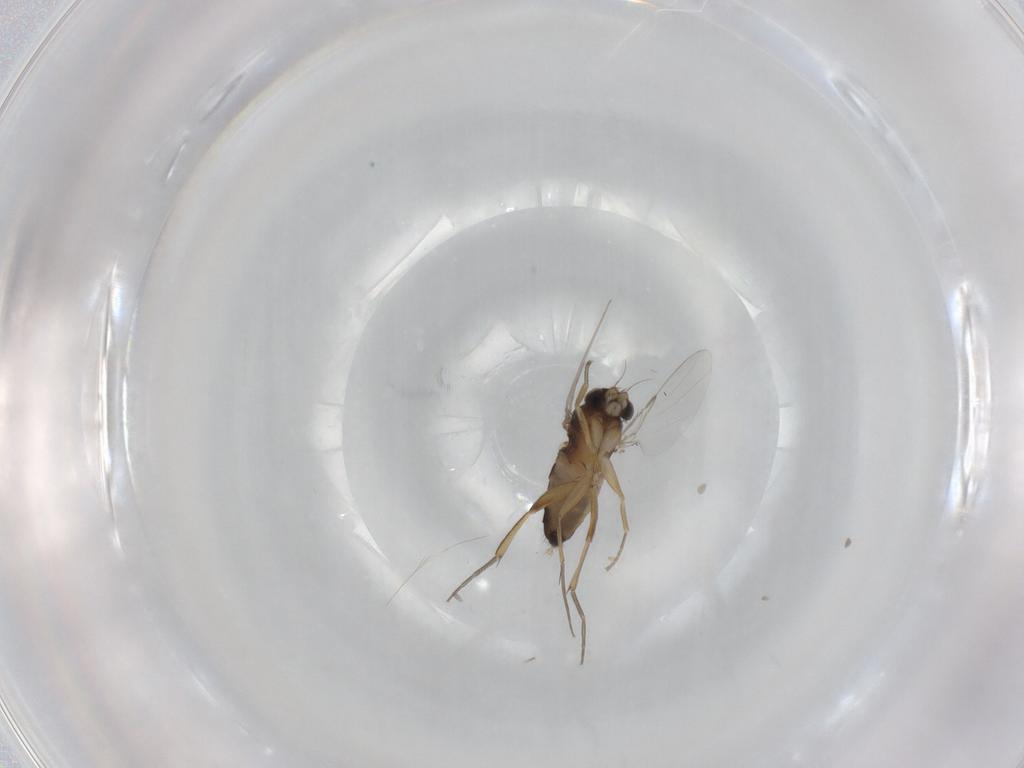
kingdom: Animalia
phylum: Arthropoda
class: Insecta
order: Diptera
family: Phoridae
